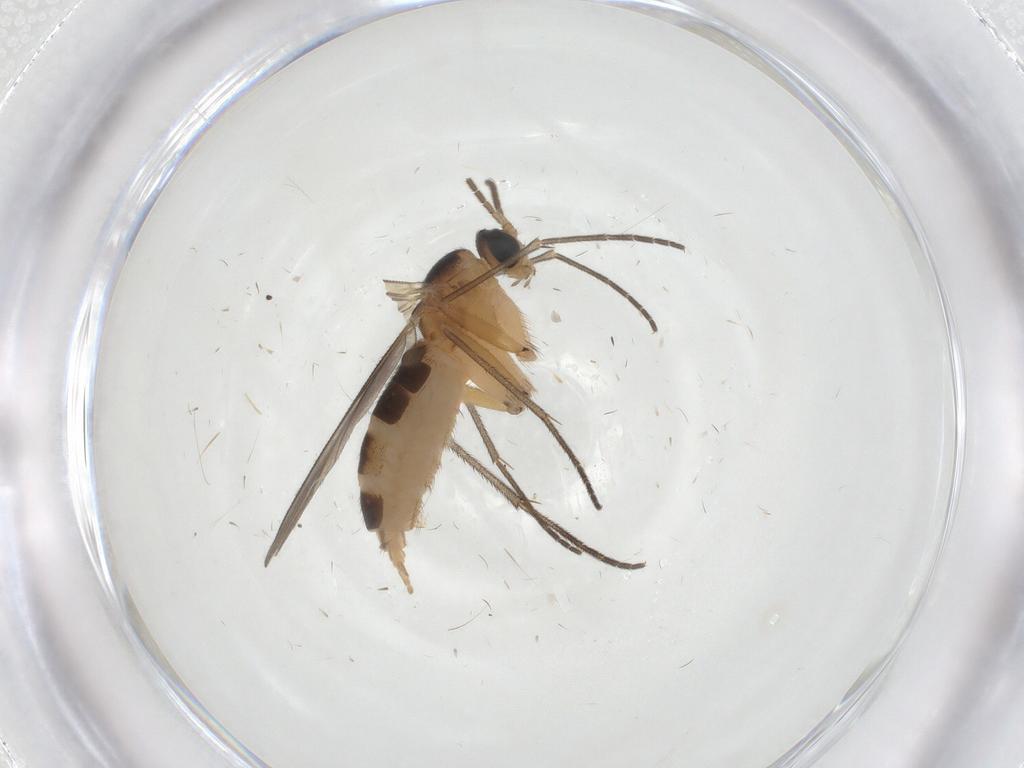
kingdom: Animalia
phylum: Arthropoda
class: Insecta
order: Diptera
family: Sciaridae
